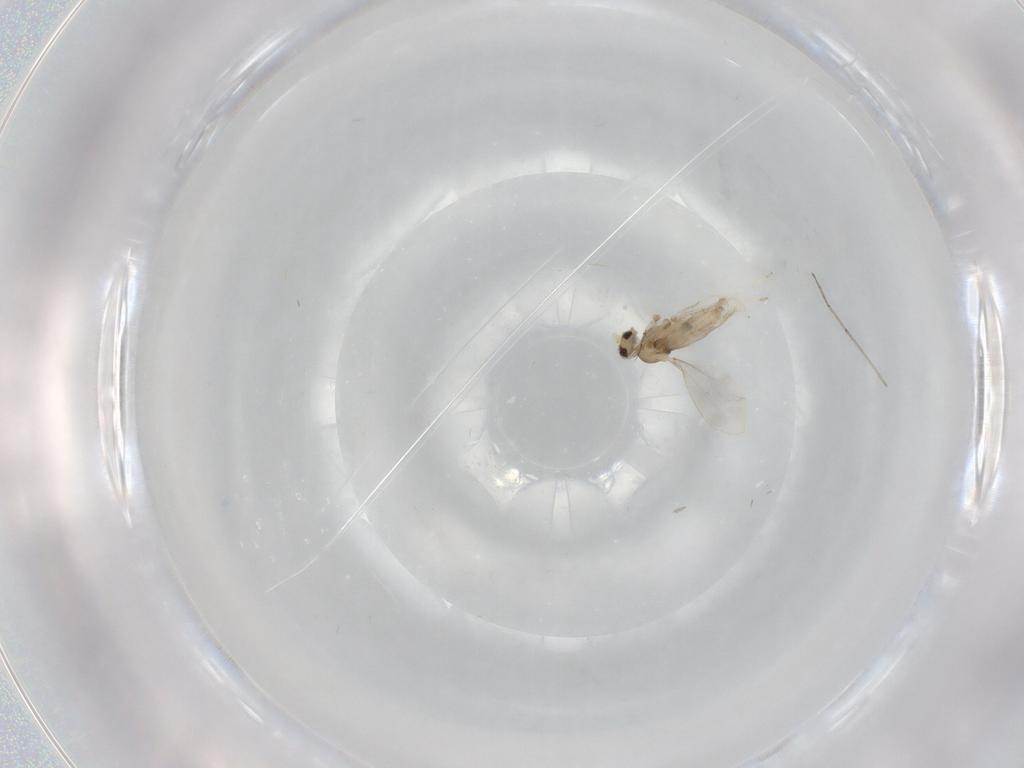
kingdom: Animalia
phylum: Arthropoda
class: Insecta
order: Diptera
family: Cecidomyiidae
